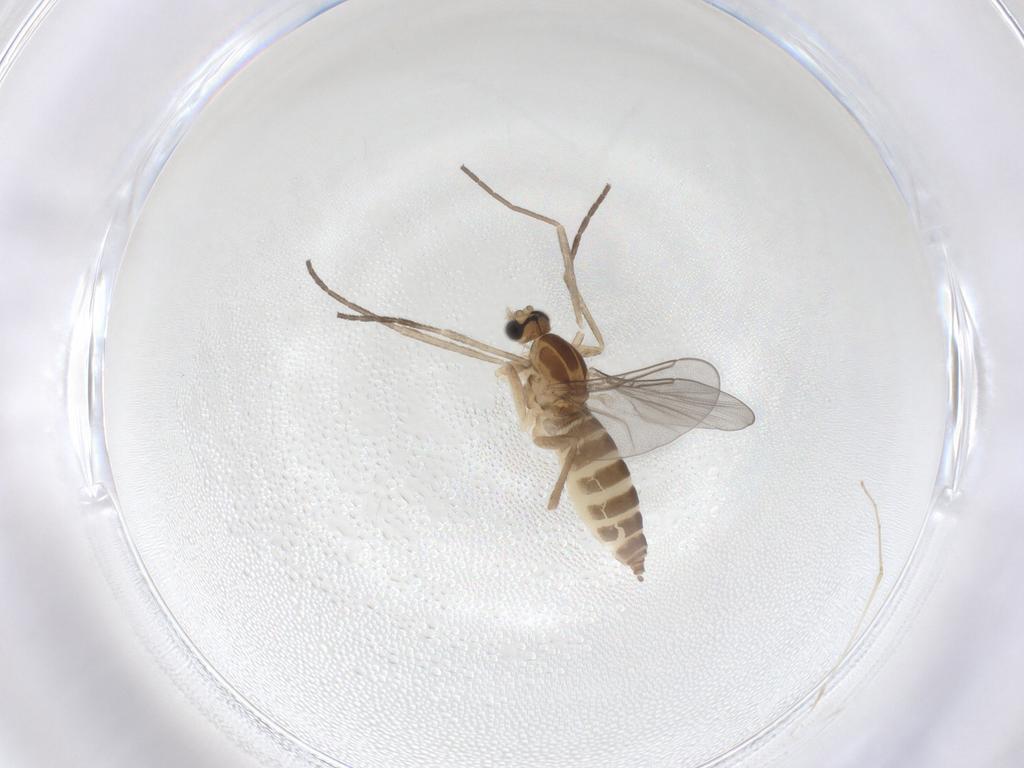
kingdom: Animalia
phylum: Arthropoda
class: Insecta
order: Diptera
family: Cecidomyiidae
